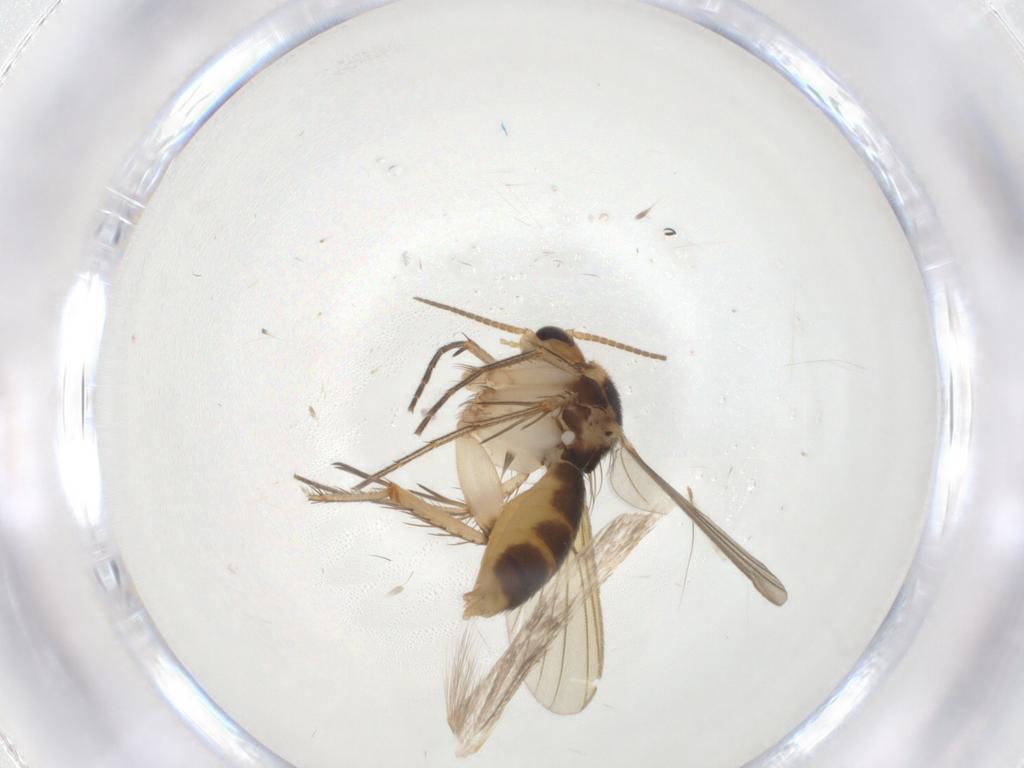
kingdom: Animalia
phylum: Arthropoda
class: Insecta
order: Diptera
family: Mycetophilidae
